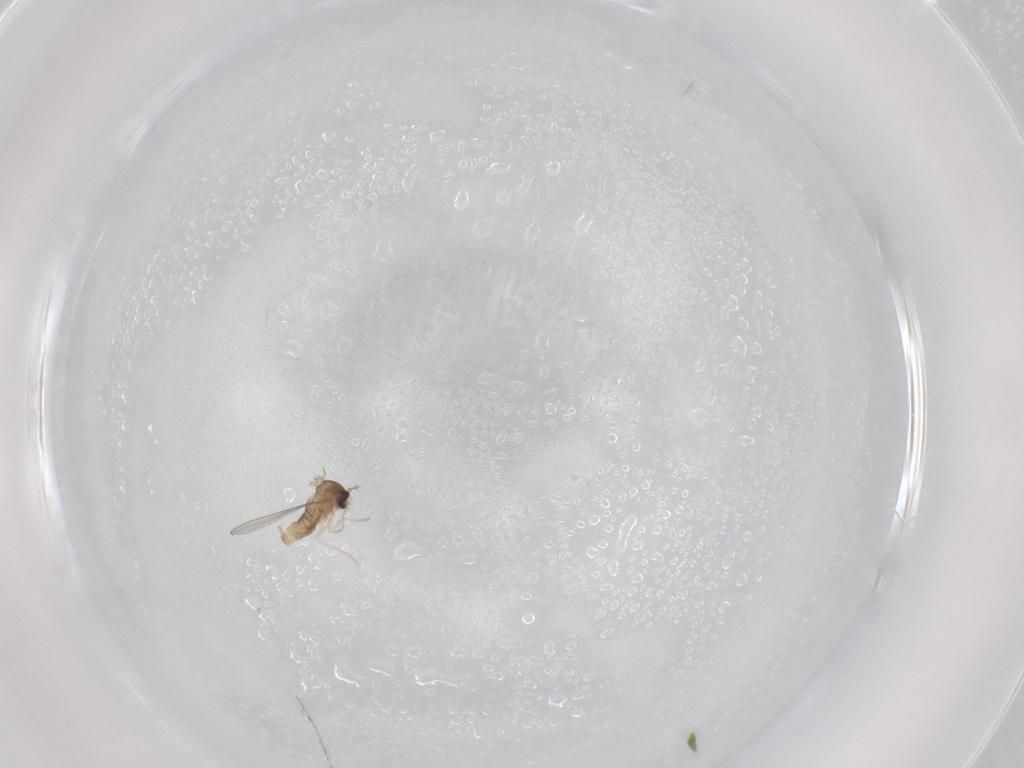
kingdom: Animalia
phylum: Arthropoda
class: Insecta
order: Diptera
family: Cecidomyiidae
